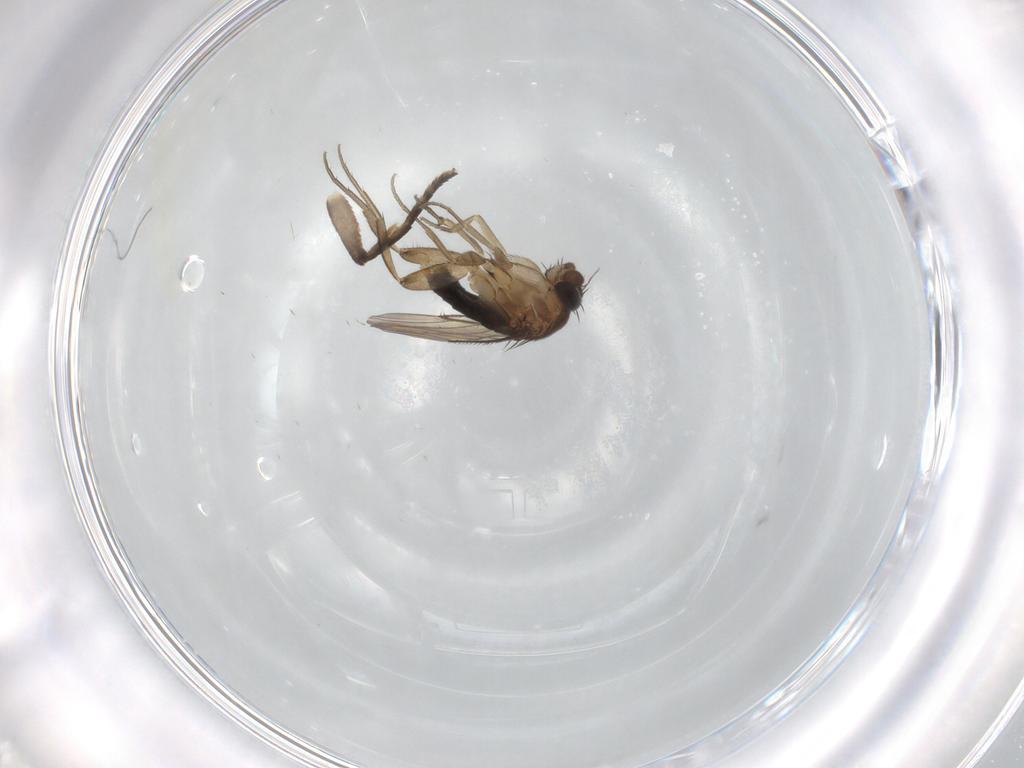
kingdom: Animalia
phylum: Arthropoda
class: Insecta
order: Diptera
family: Phoridae
